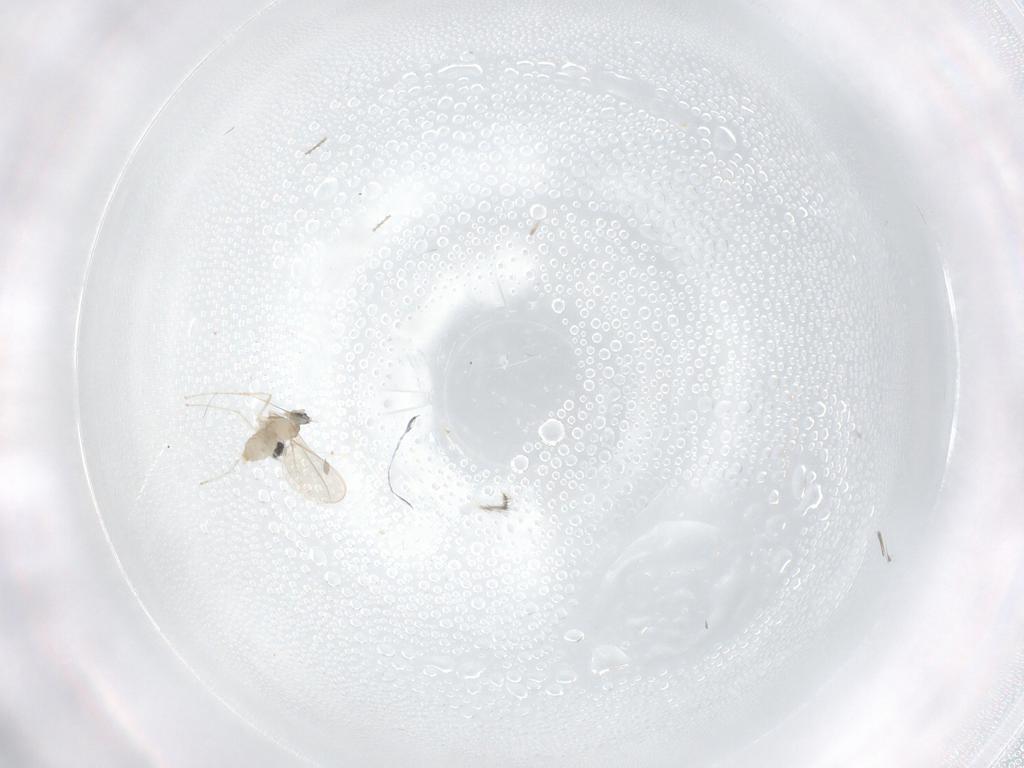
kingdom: Animalia
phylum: Arthropoda
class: Insecta
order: Diptera
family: Cecidomyiidae
